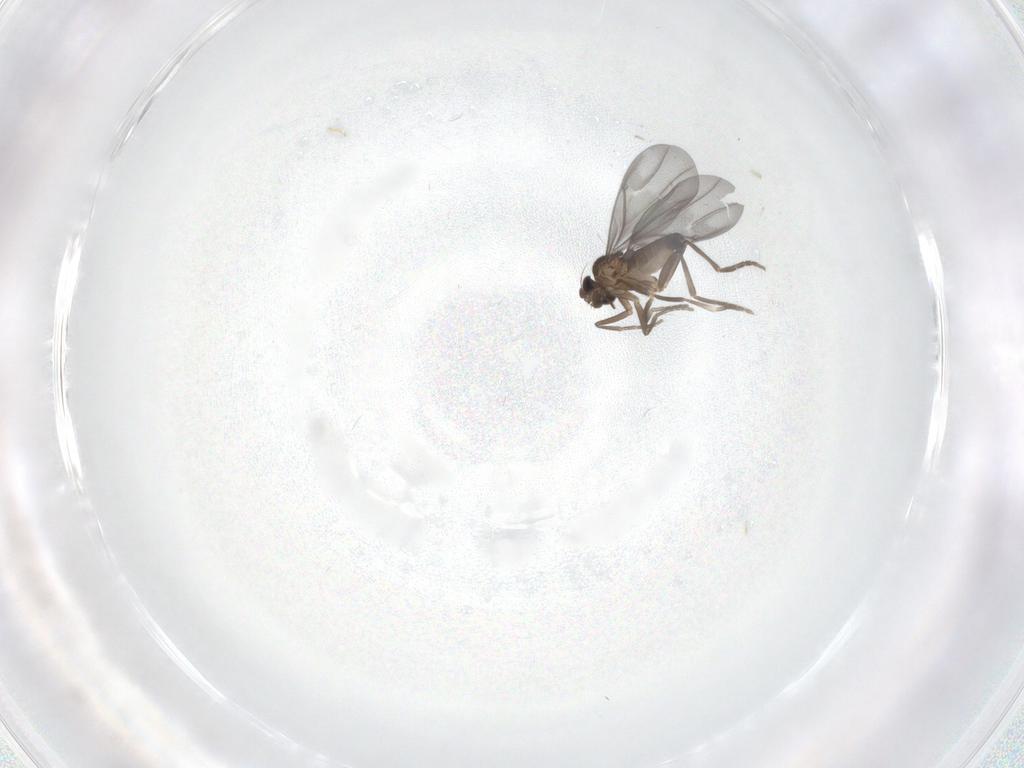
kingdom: Animalia
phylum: Arthropoda
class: Insecta
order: Diptera
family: Phoridae
